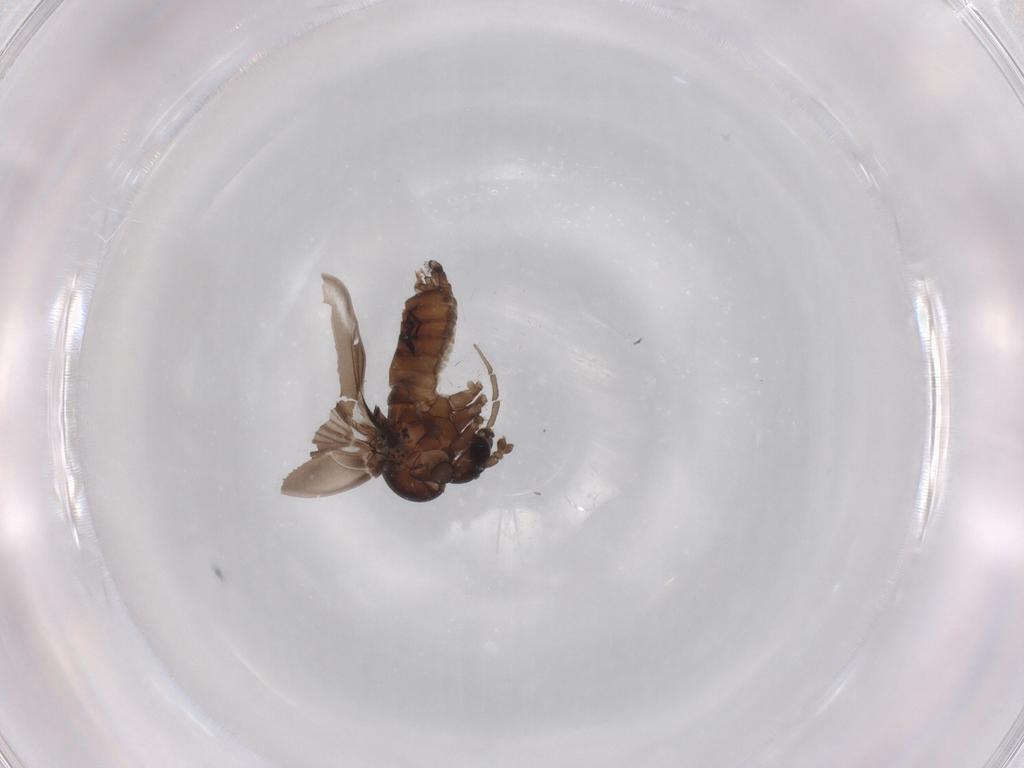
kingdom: Animalia
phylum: Arthropoda
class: Insecta
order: Diptera
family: Phoridae
